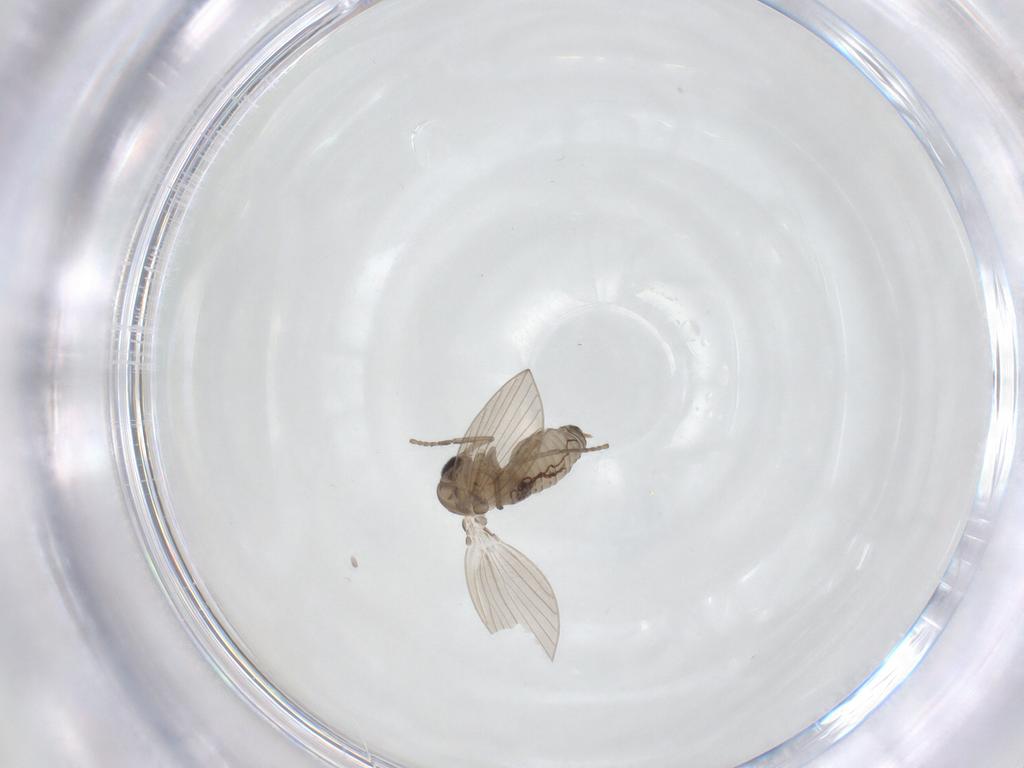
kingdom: Animalia
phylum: Arthropoda
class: Insecta
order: Diptera
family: Psychodidae
